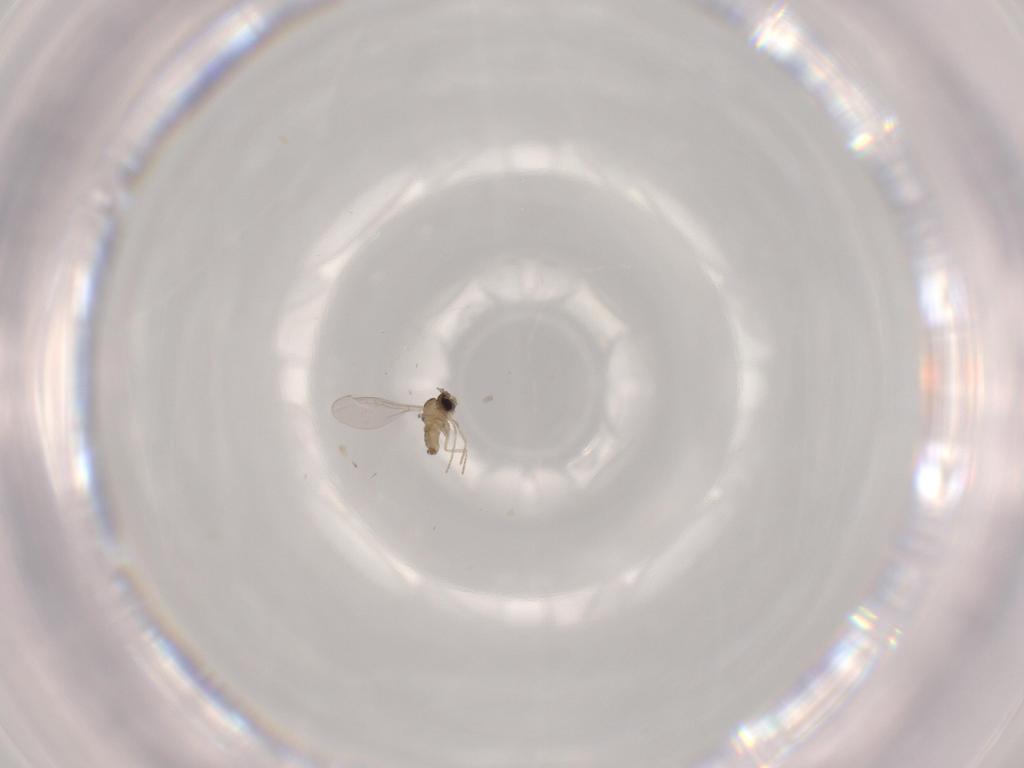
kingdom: Animalia
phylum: Arthropoda
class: Insecta
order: Diptera
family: Cecidomyiidae
